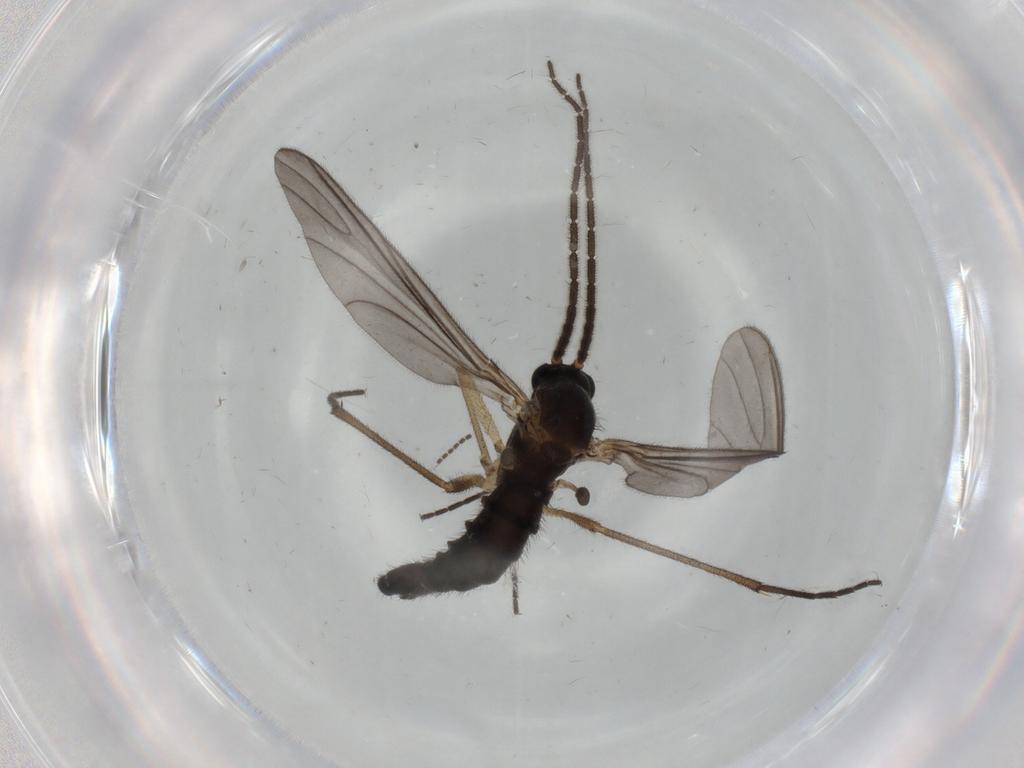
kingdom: Animalia
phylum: Arthropoda
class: Insecta
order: Diptera
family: Sciaridae
